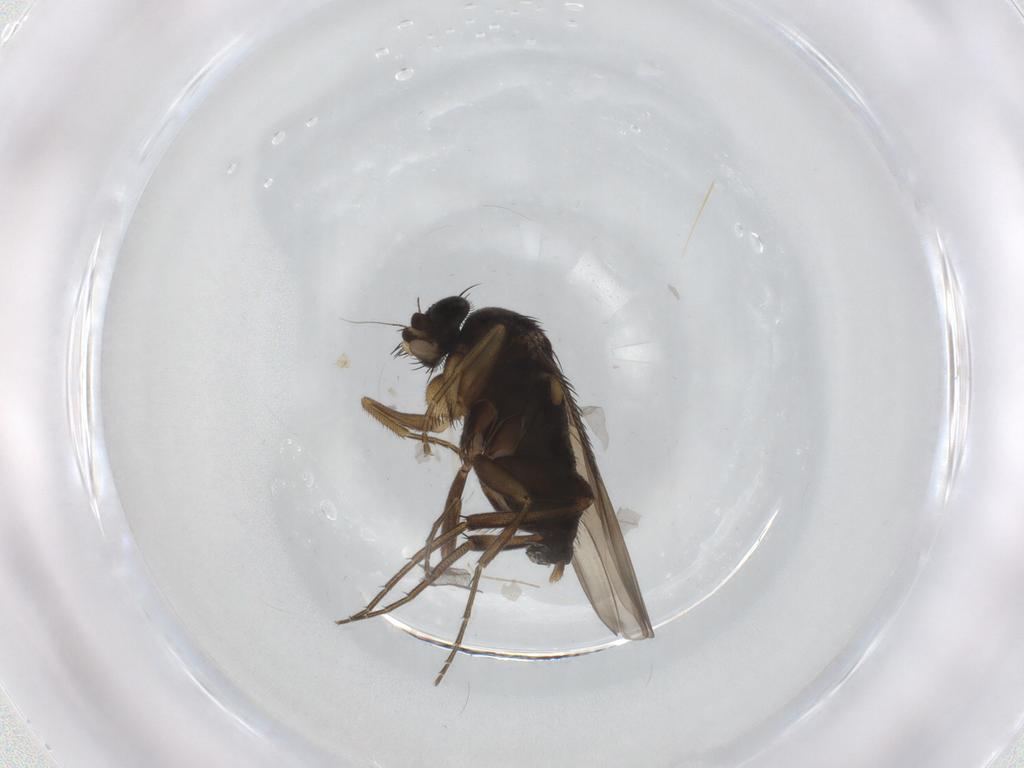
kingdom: Animalia
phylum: Arthropoda
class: Insecta
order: Diptera
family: Phoridae
